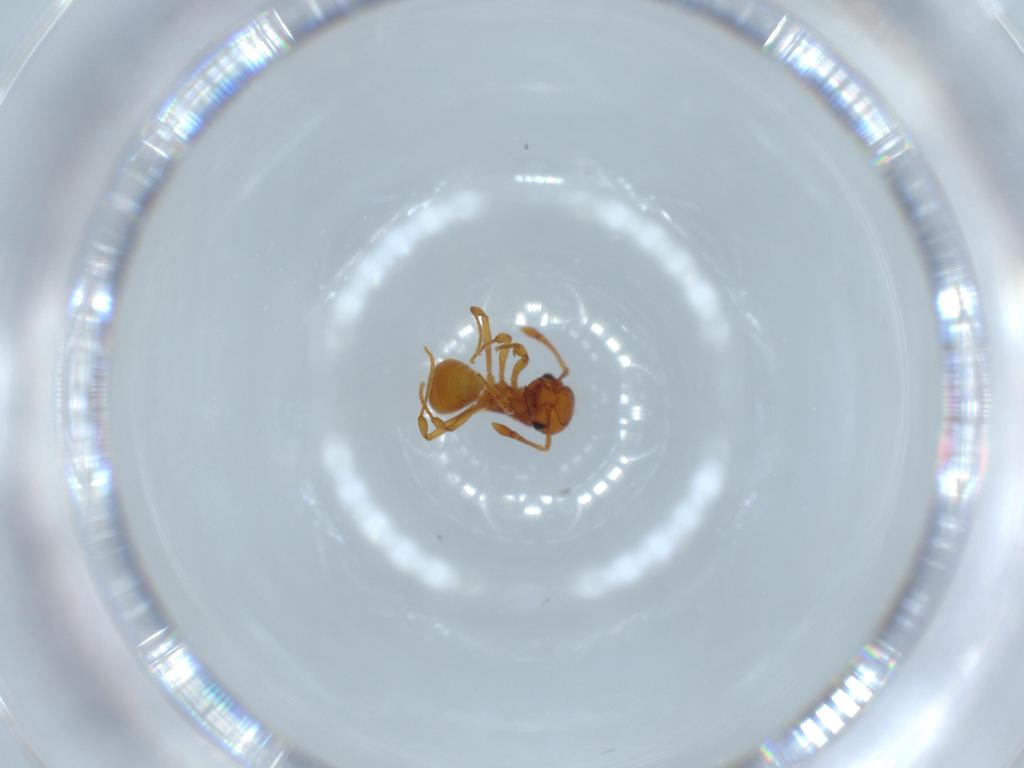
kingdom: Animalia
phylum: Arthropoda
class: Insecta
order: Hymenoptera
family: Formicidae
